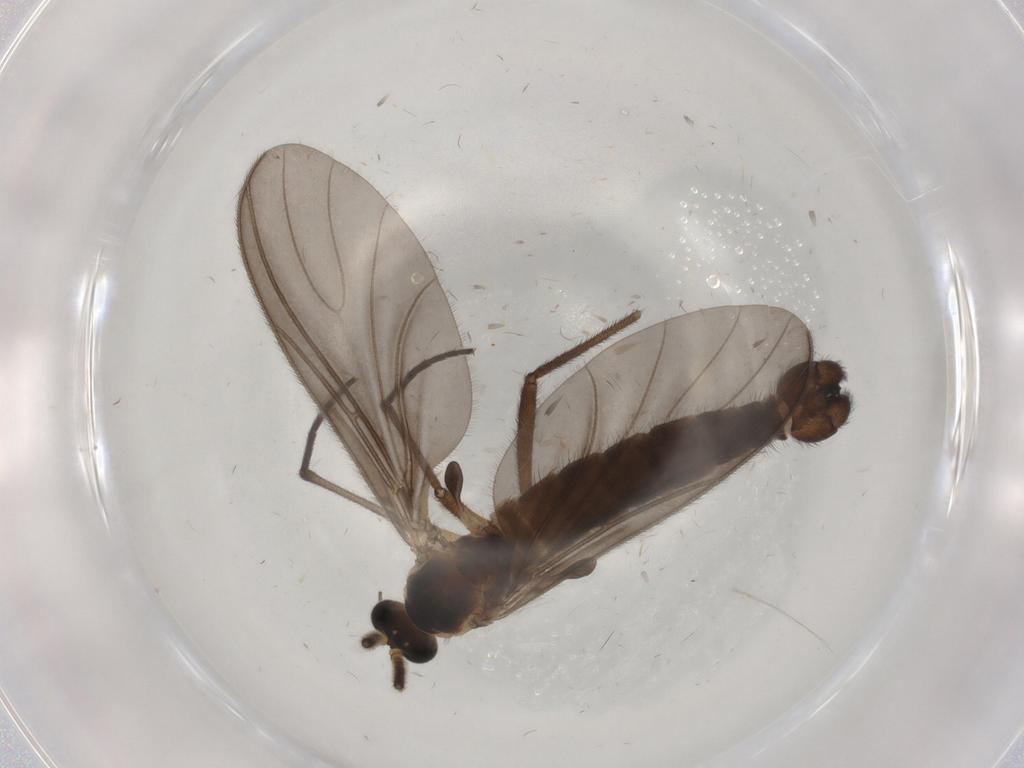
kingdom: Animalia
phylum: Arthropoda
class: Insecta
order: Diptera
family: Sciaridae
